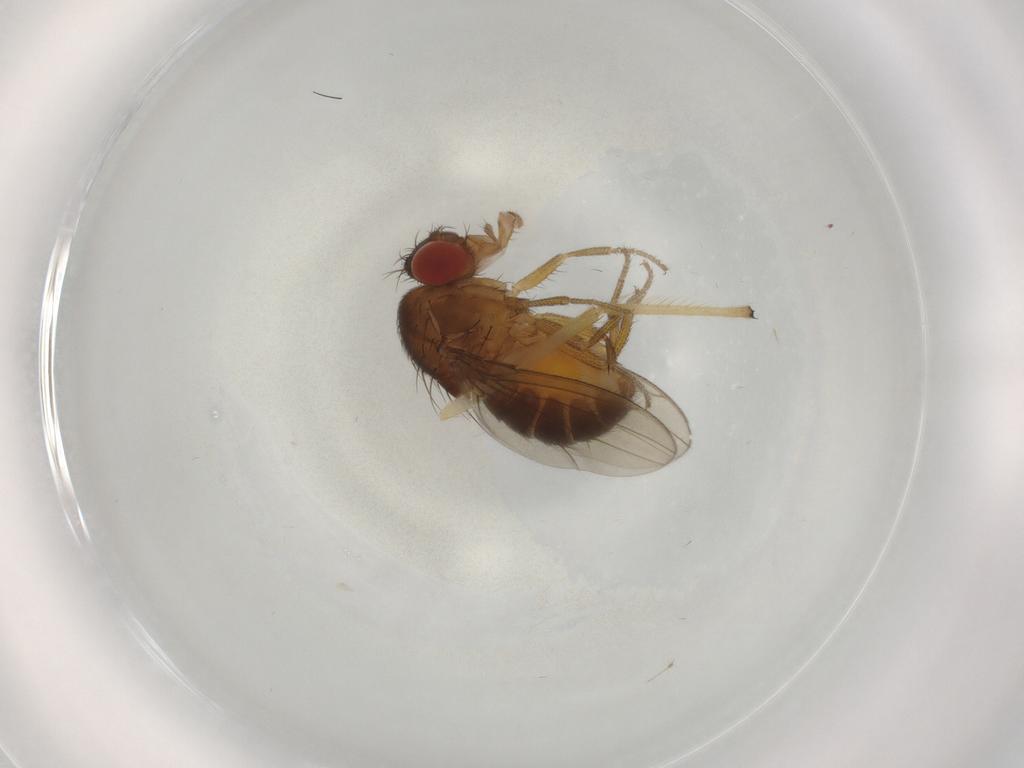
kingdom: Animalia
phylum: Arthropoda
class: Insecta
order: Diptera
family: Drosophilidae
